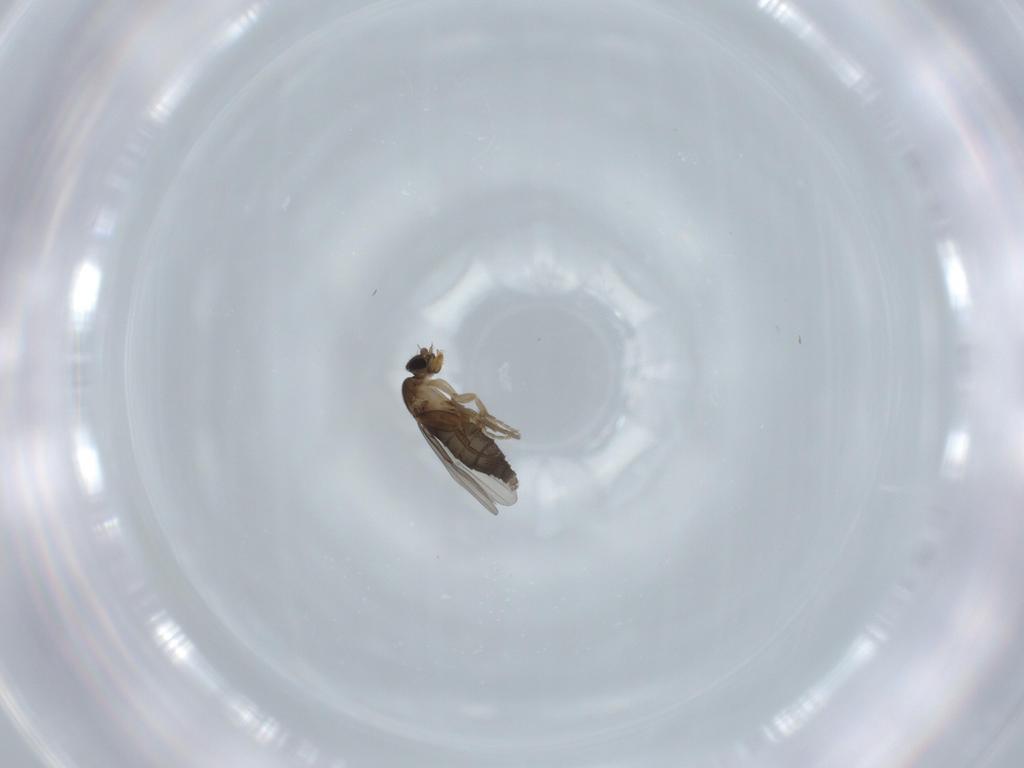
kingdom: Animalia
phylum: Arthropoda
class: Insecta
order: Diptera
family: Phoridae
